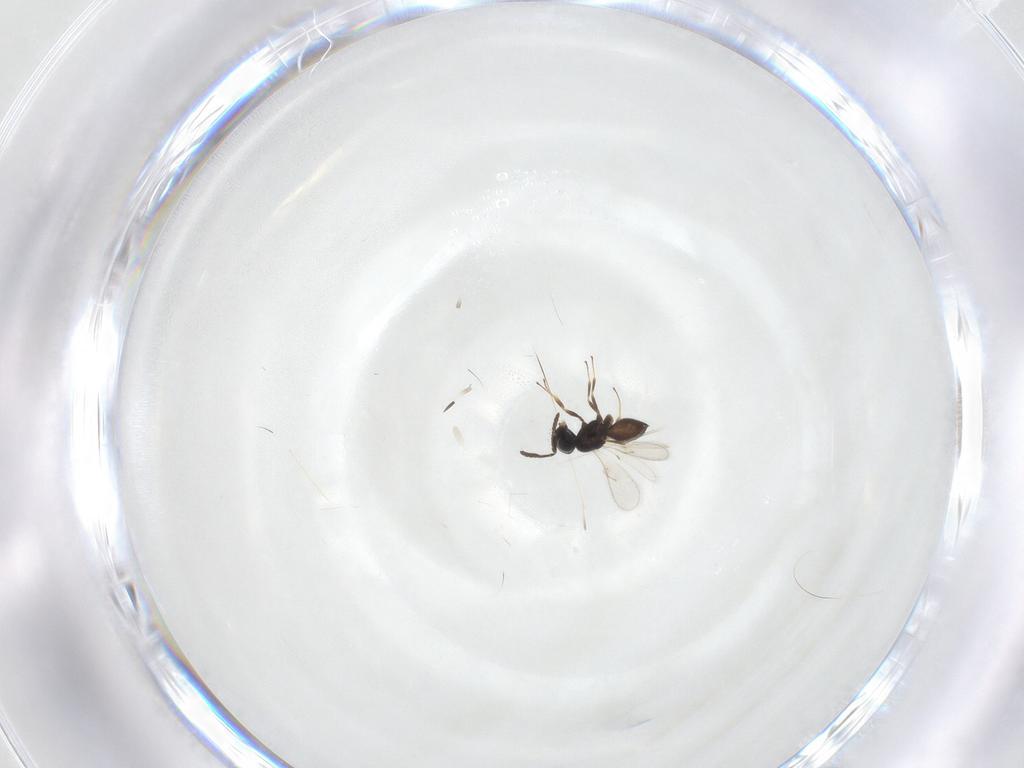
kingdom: Animalia
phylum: Arthropoda
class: Insecta
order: Hymenoptera
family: Scelionidae
